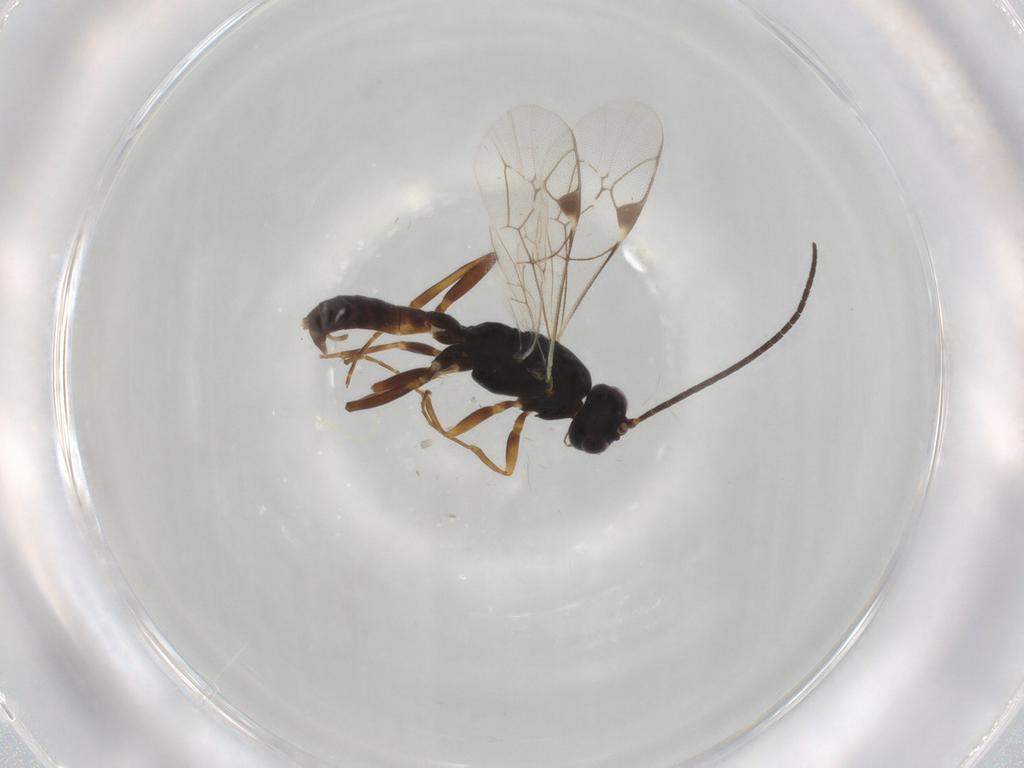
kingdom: Animalia
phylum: Arthropoda
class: Insecta
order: Hymenoptera
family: Ichneumonidae
